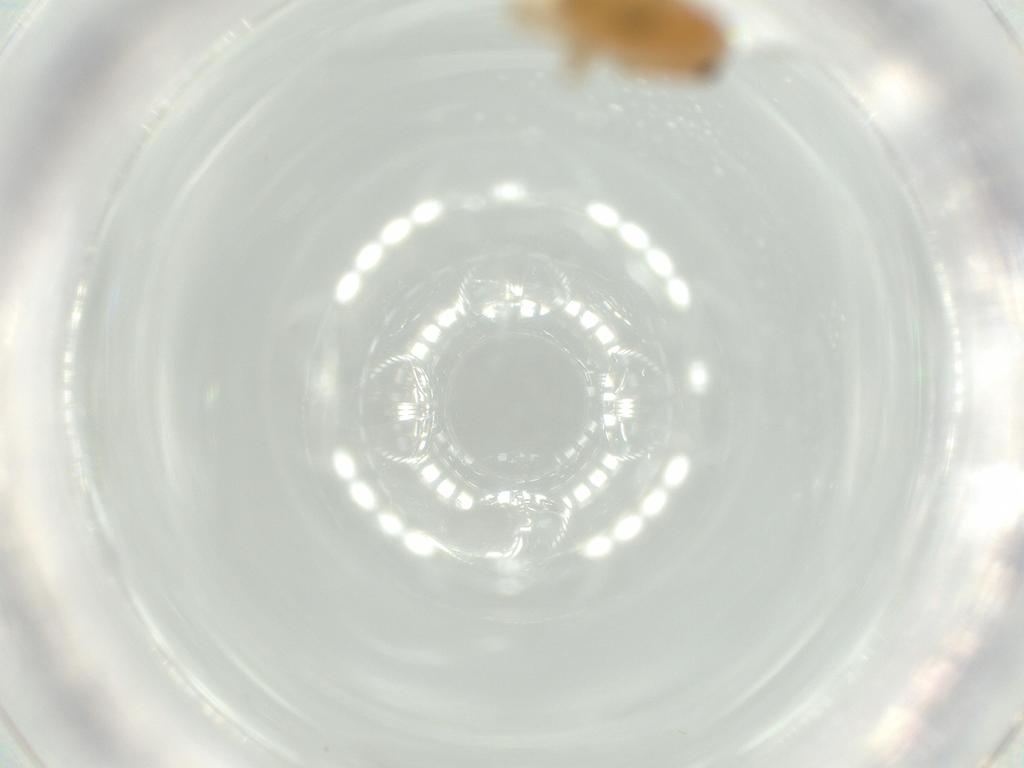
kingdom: Animalia
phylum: Arthropoda
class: Insecta
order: Psocodea
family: Caeciliusidae
